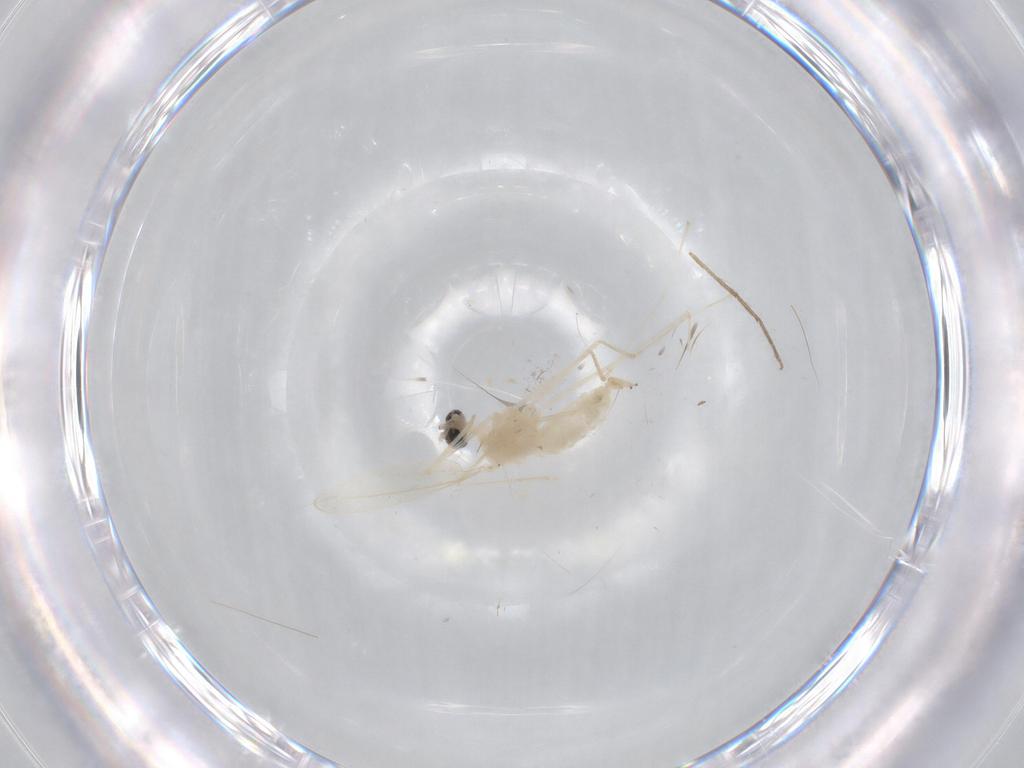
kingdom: Animalia
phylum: Arthropoda
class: Insecta
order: Diptera
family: Cecidomyiidae
